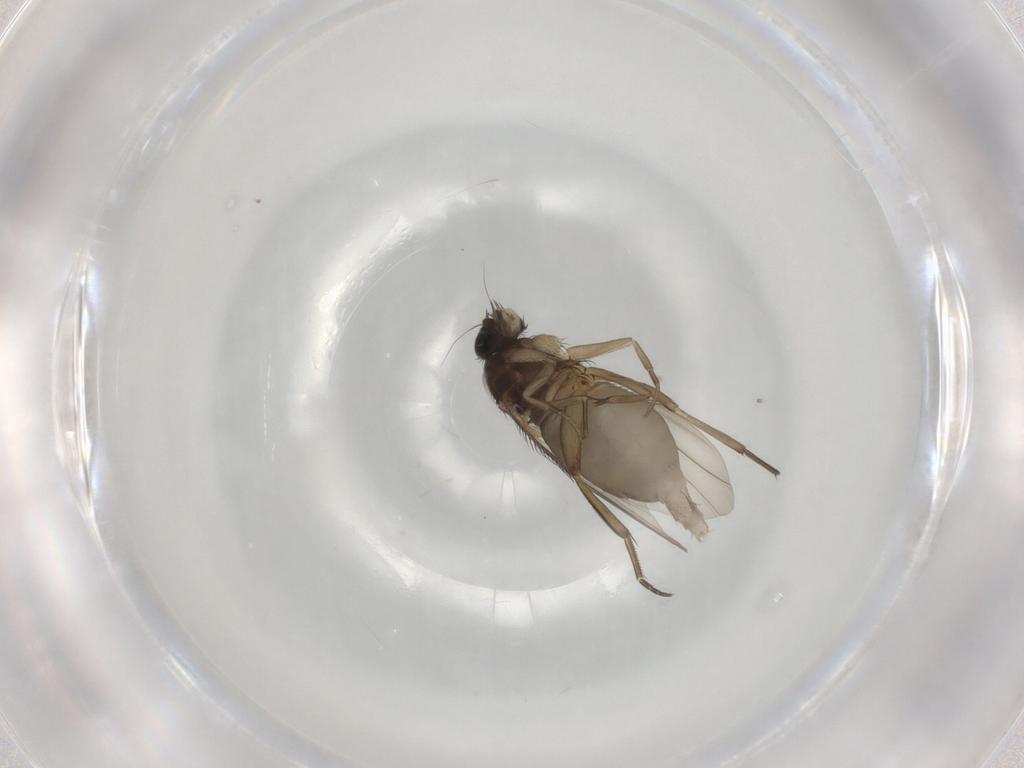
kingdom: Animalia
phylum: Arthropoda
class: Insecta
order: Diptera
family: Phoridae
